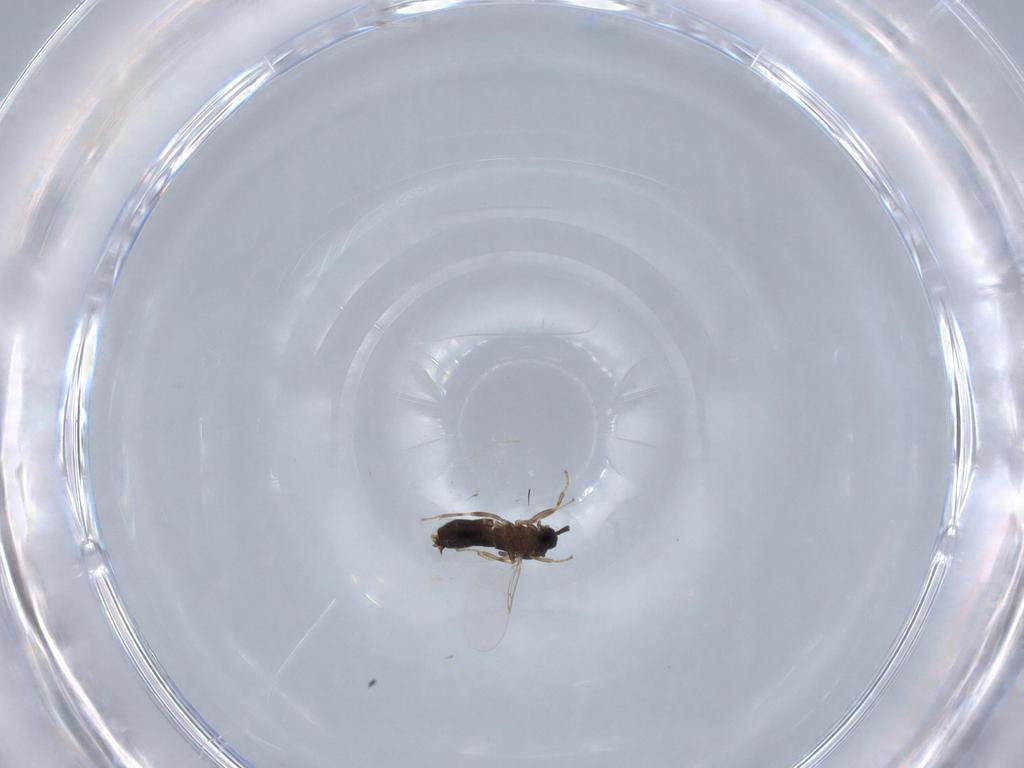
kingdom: Animalia
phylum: Arthropoda
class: Insecta
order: Diptera
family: Scatopsidae
